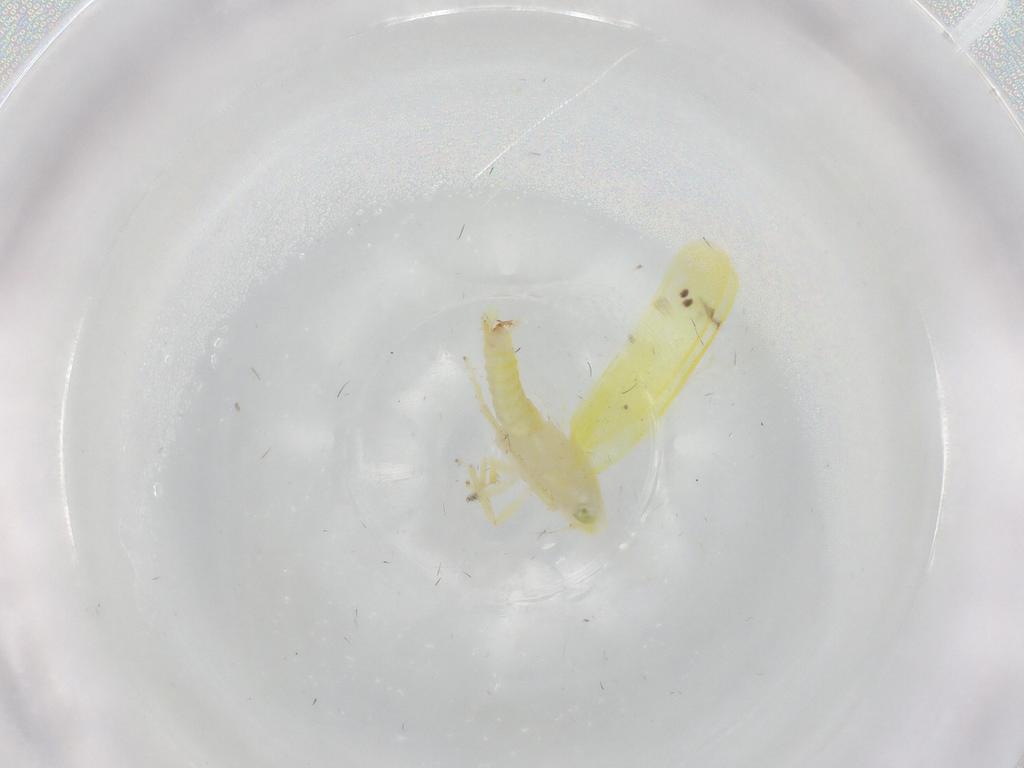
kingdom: Animalia
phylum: Arthropoda
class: Insecta
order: Hemiptera
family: Cicadellidae
